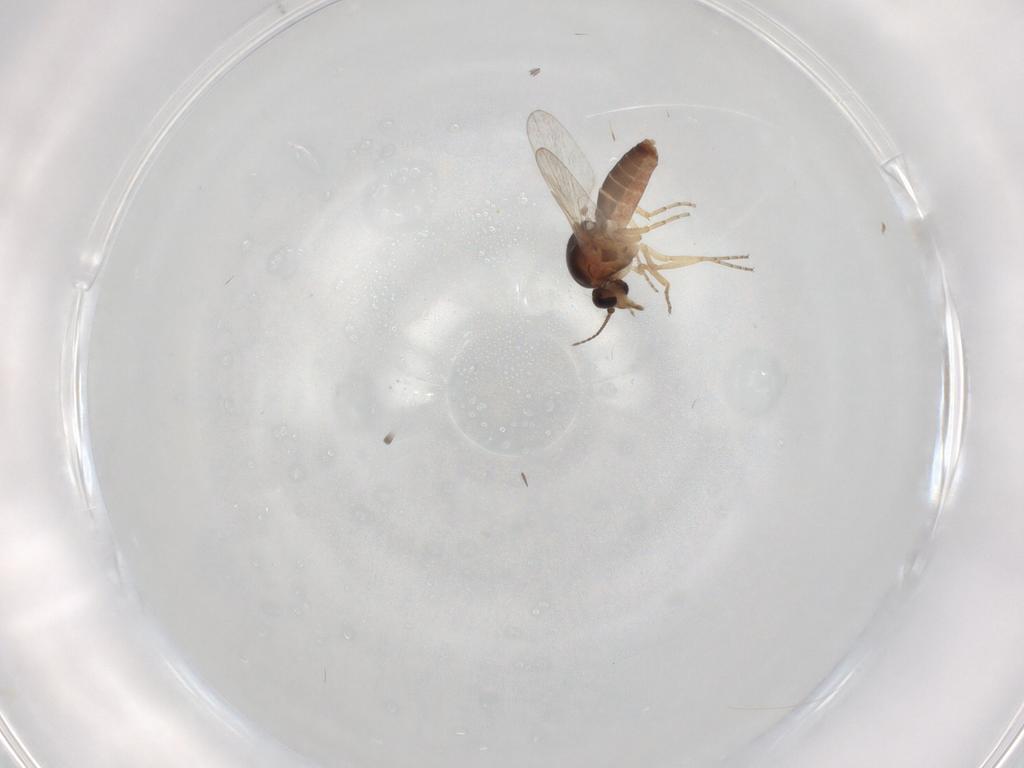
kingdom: Animalia
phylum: Arthropoda
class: Insecta
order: Diptera
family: Ceratopogonidae
